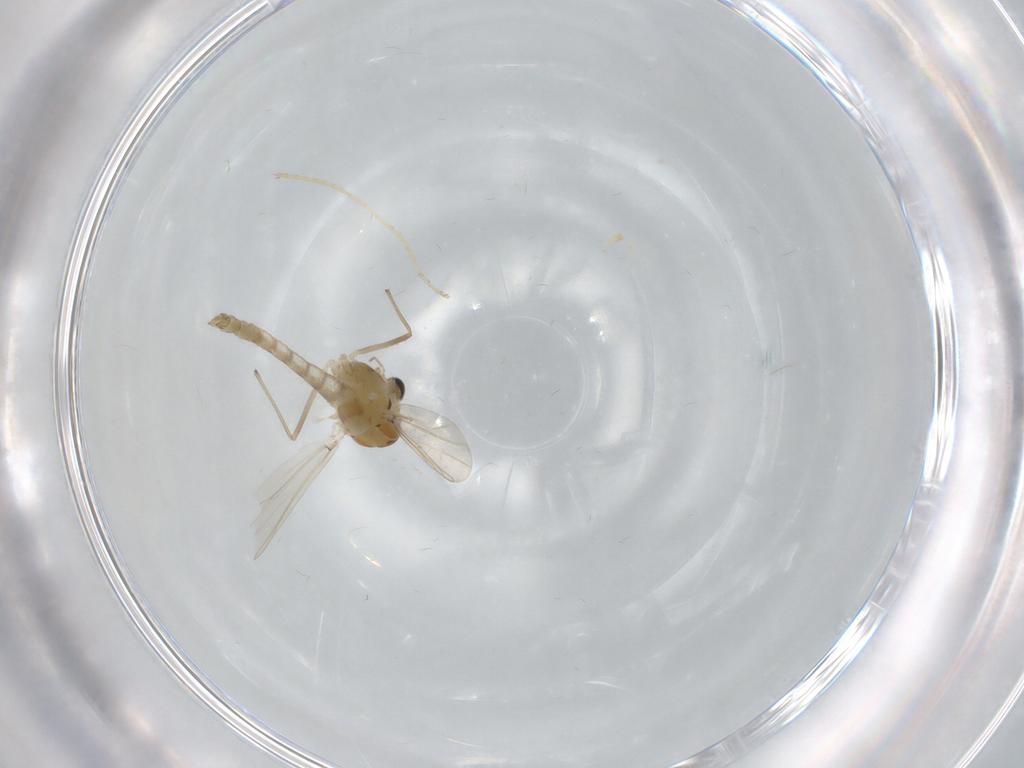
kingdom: Animalia
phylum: Arthropoda
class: Insecta
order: Diptera
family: Chironomidae
